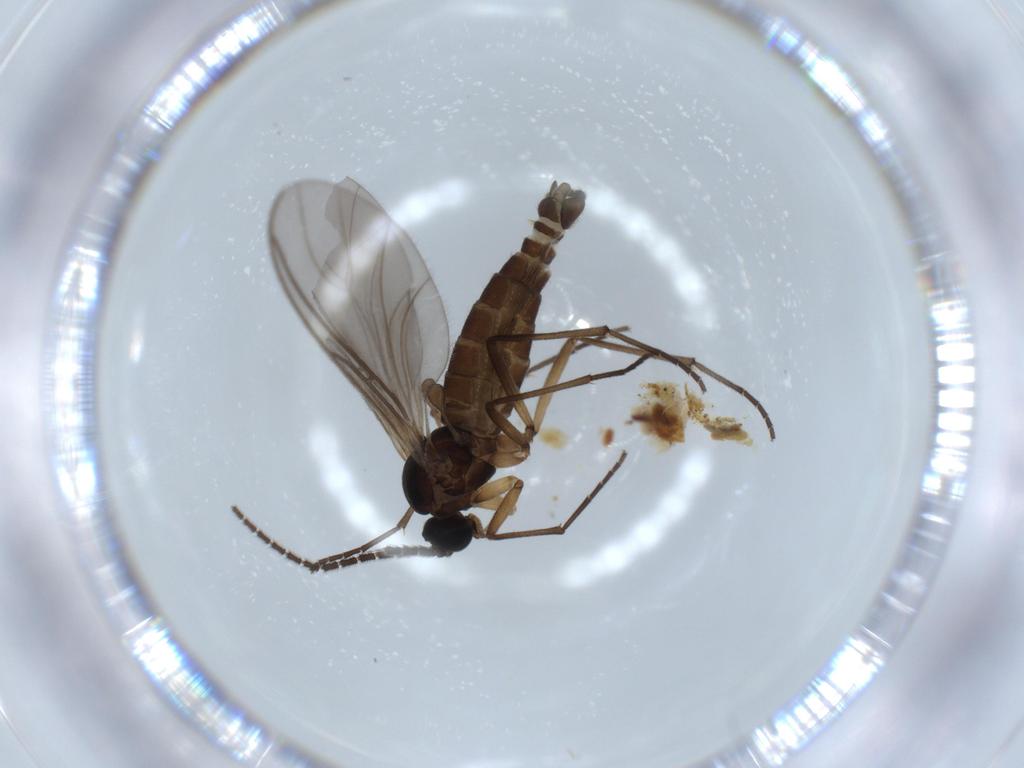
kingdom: Animalia
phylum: Arthropoda
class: Insecta
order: Diptera
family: Sciaridae
